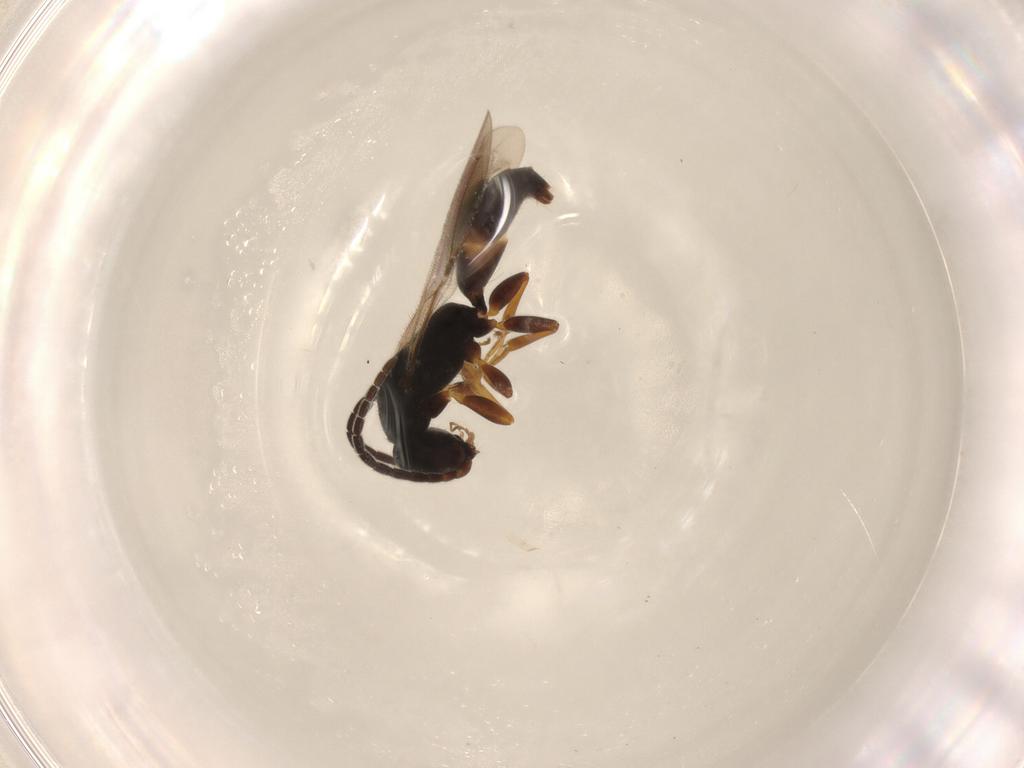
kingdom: Animalia
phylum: Arthropoda
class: Insecta
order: Hymenoptera
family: Bethylidae
